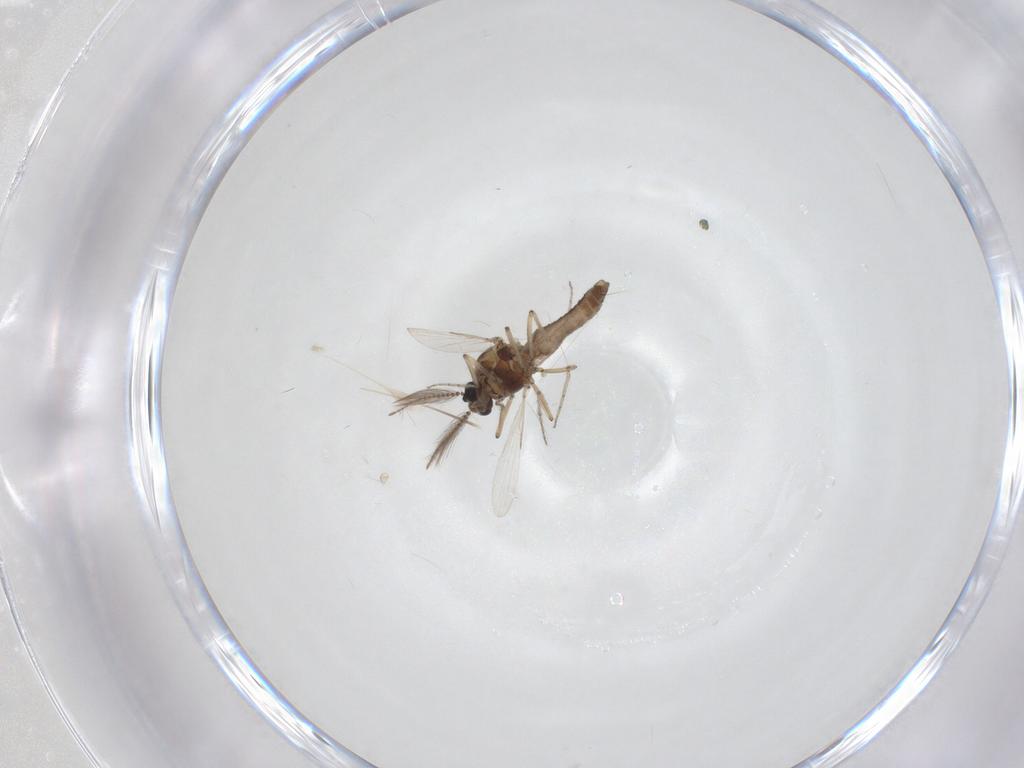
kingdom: Animalia
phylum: Arthropoda
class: Insecta
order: Diptera
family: Ceratopogonidae
